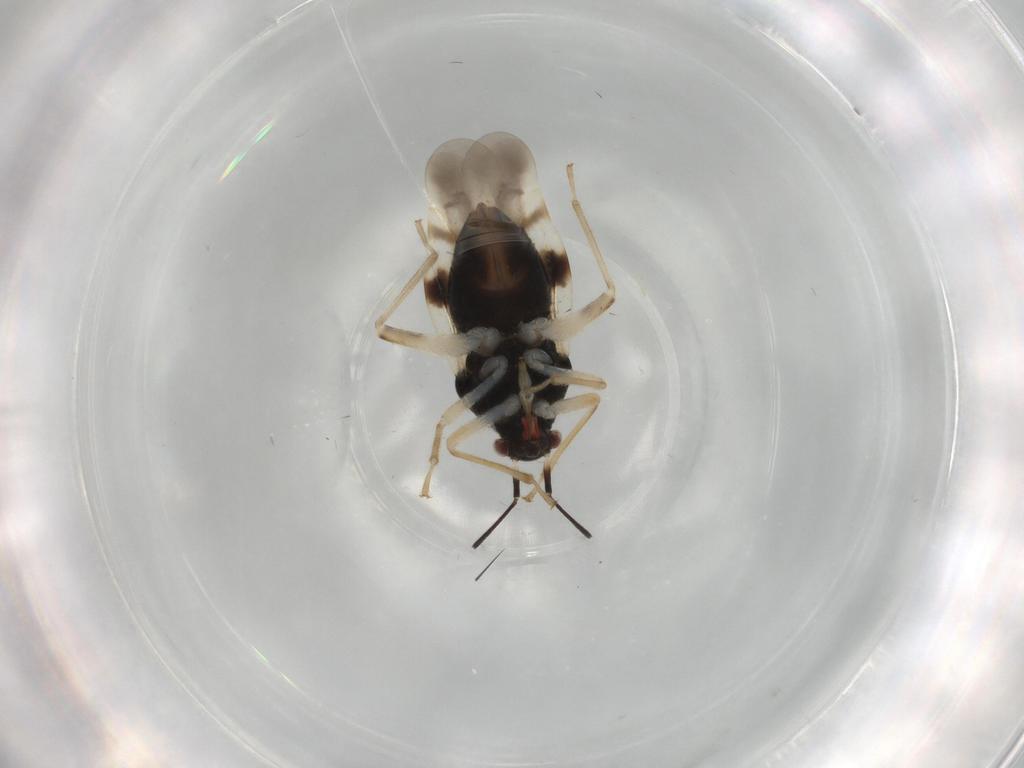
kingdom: Animalia
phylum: Arthropoda
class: Insecta
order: Hemiptera
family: Miridae
